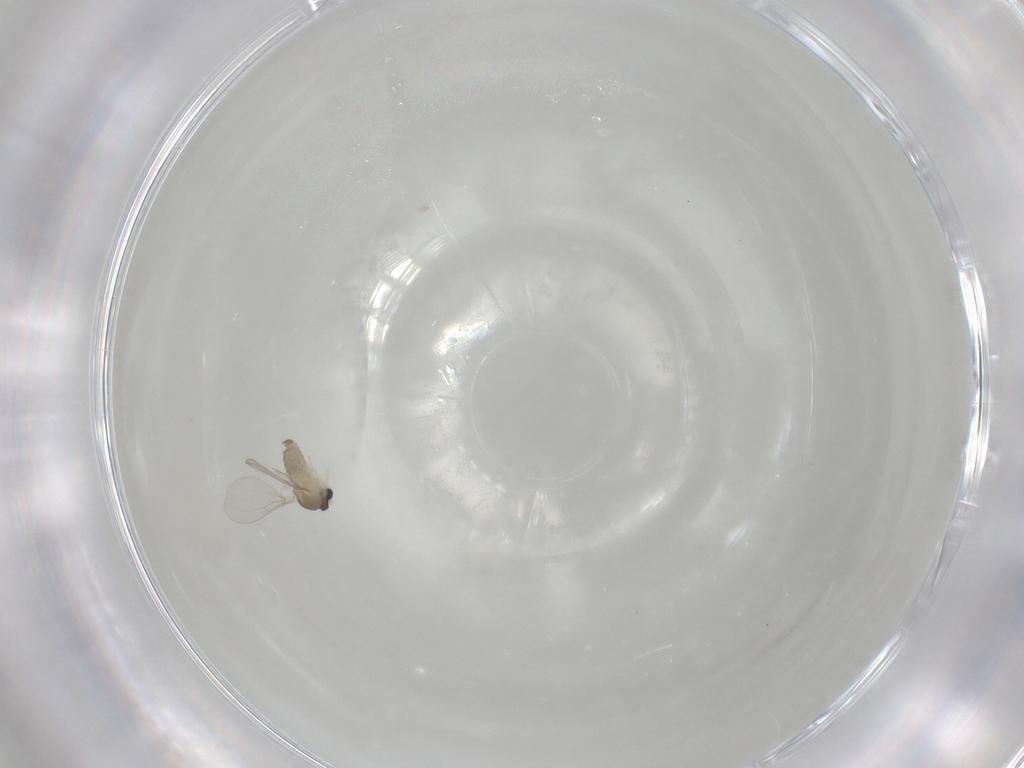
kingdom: Animalia
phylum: Arthropoda
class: Insecta
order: Diptera
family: Cecidomyiidae
